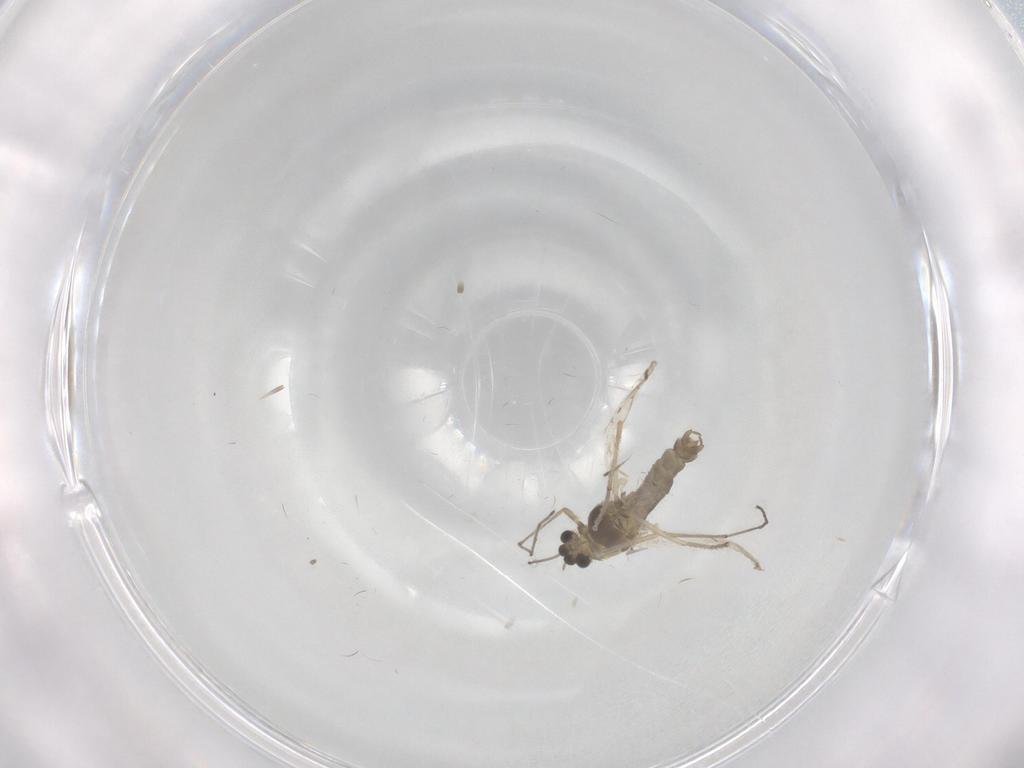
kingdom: Animalia
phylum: Arthropoda
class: Insecta
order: Diptera
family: Chironomidae
